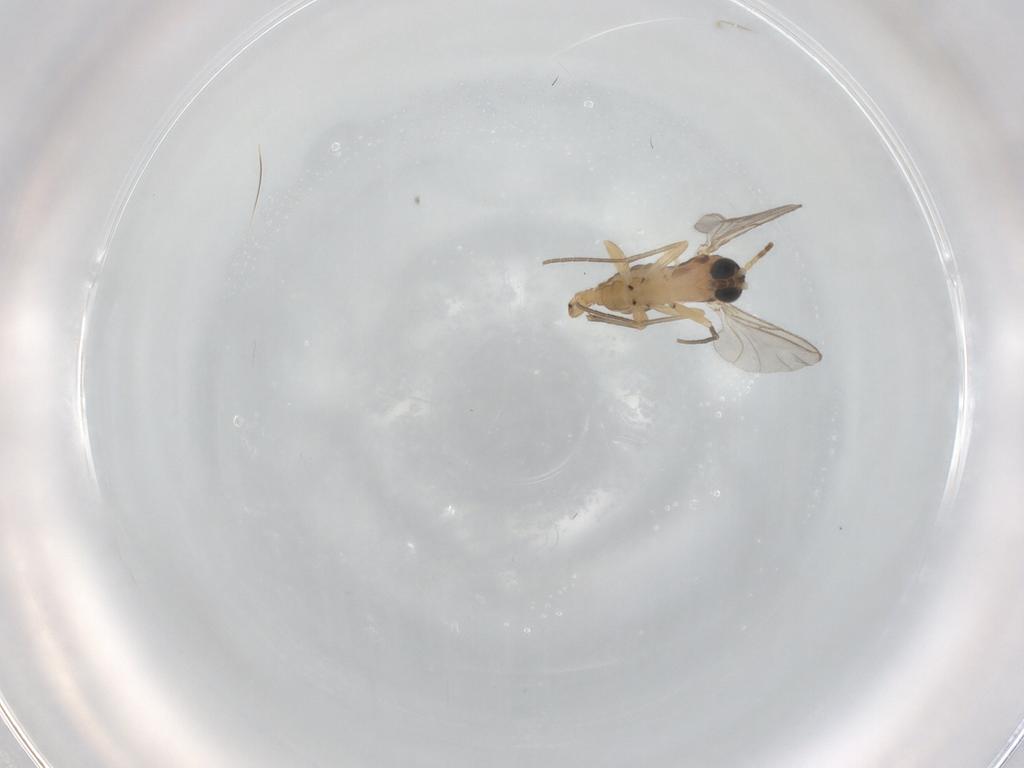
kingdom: Animalia
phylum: Arthropoda
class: Insecta
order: Diptera
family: Sciaridae
